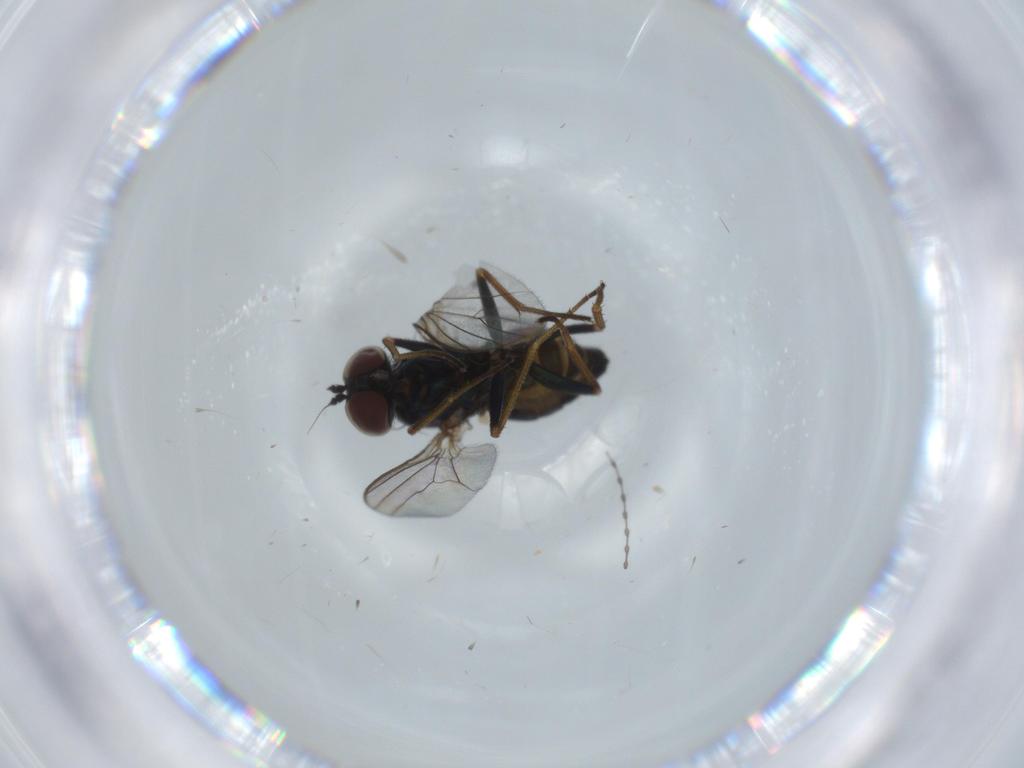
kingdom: Animalia
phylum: Arthropoda
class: Insecta
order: Diptera
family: Dolichopodidae
